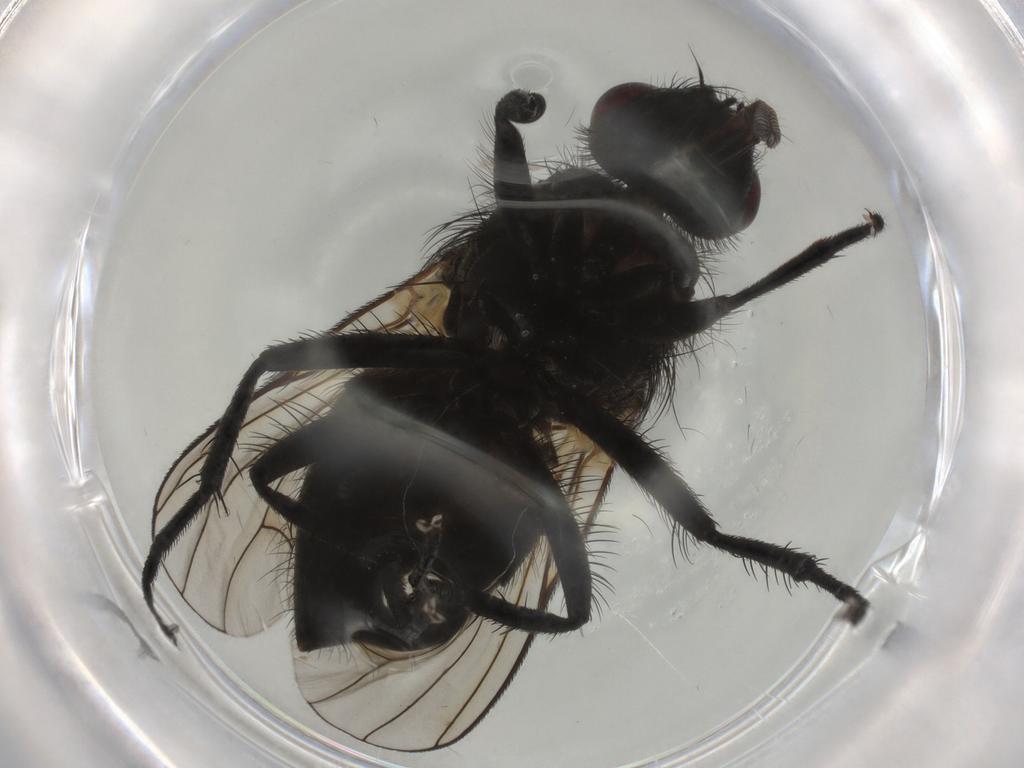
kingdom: Animalia
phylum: Arthropoda
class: Insecta
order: Diptera
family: Muscidae
